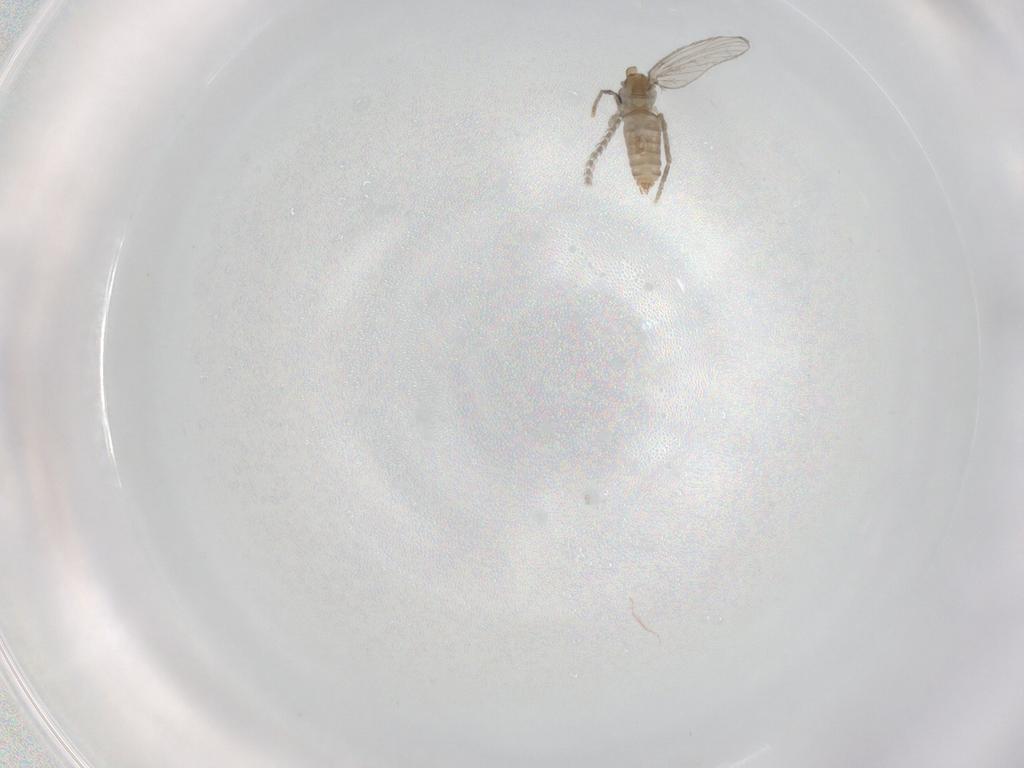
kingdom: Animalia
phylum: Arthropoda
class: Insecta
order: Diptera
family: Psychodidae
